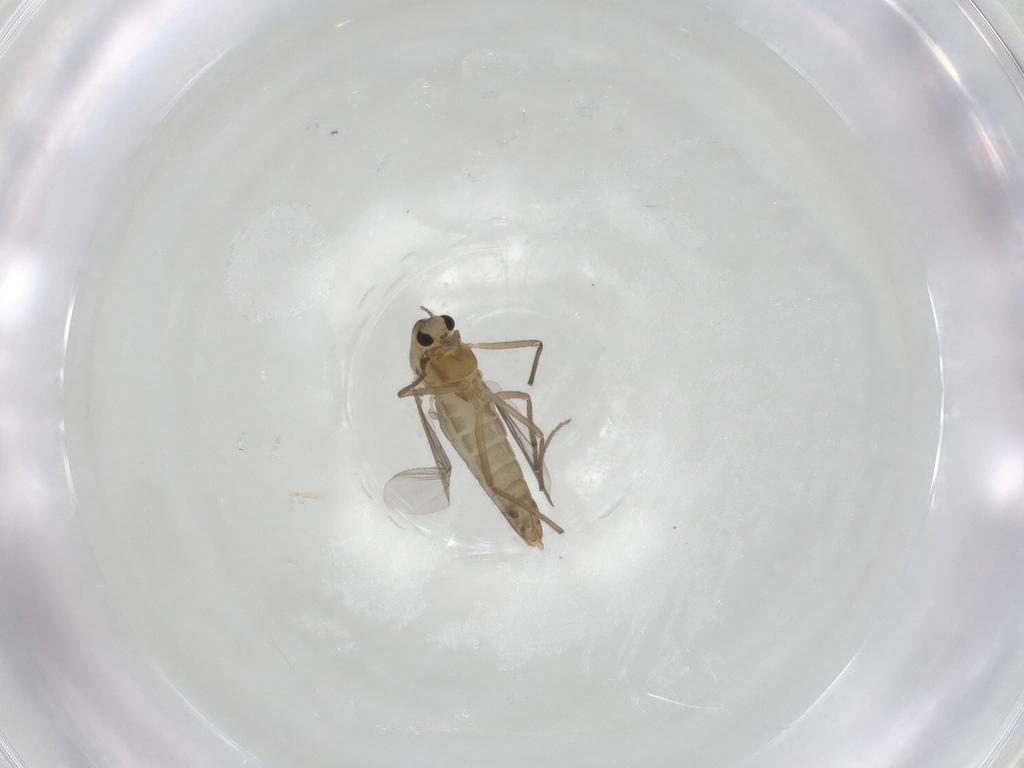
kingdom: Animalia
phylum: Arthropoda
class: Insecta
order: Diptera
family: Chironomidae
